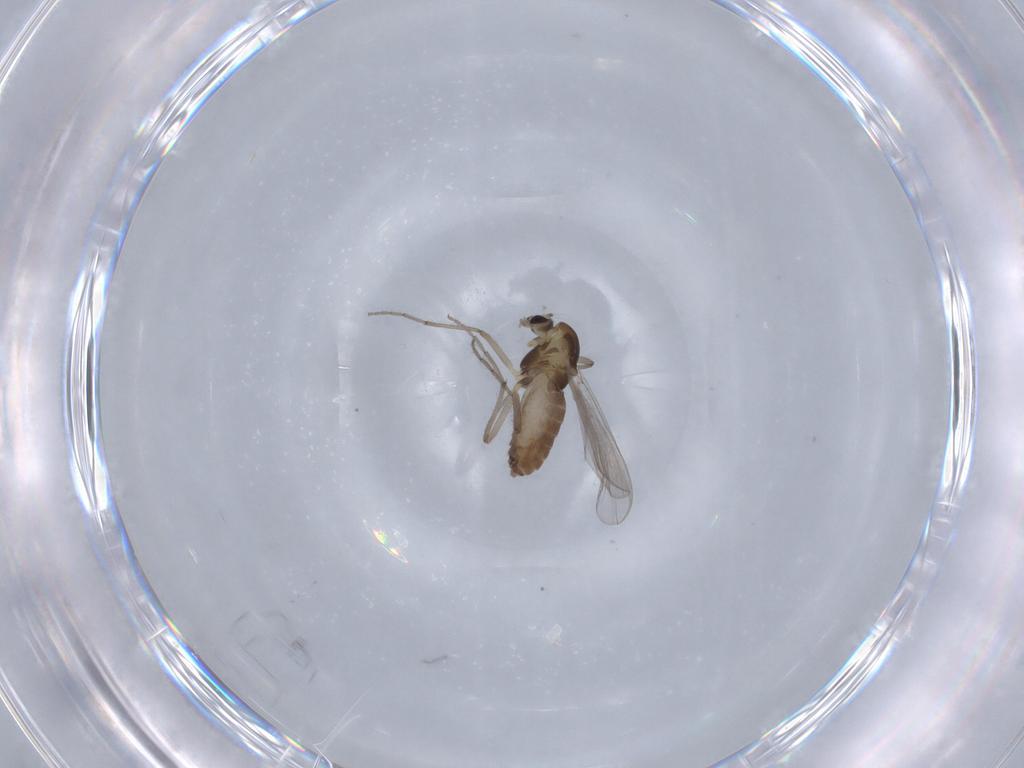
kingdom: Animalia
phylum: Arthropoda
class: Insecta
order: Diptera
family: Chironomidae
